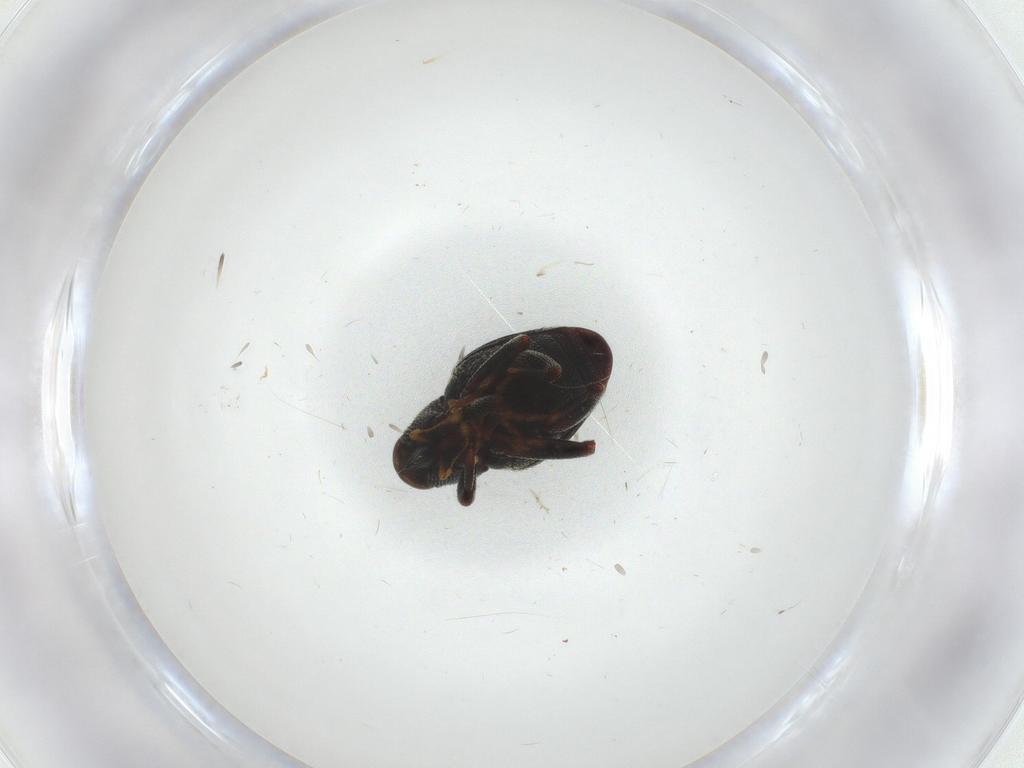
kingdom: Animalia
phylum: Arthropoda
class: Insecta
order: Coleoptera
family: Curculionidae
